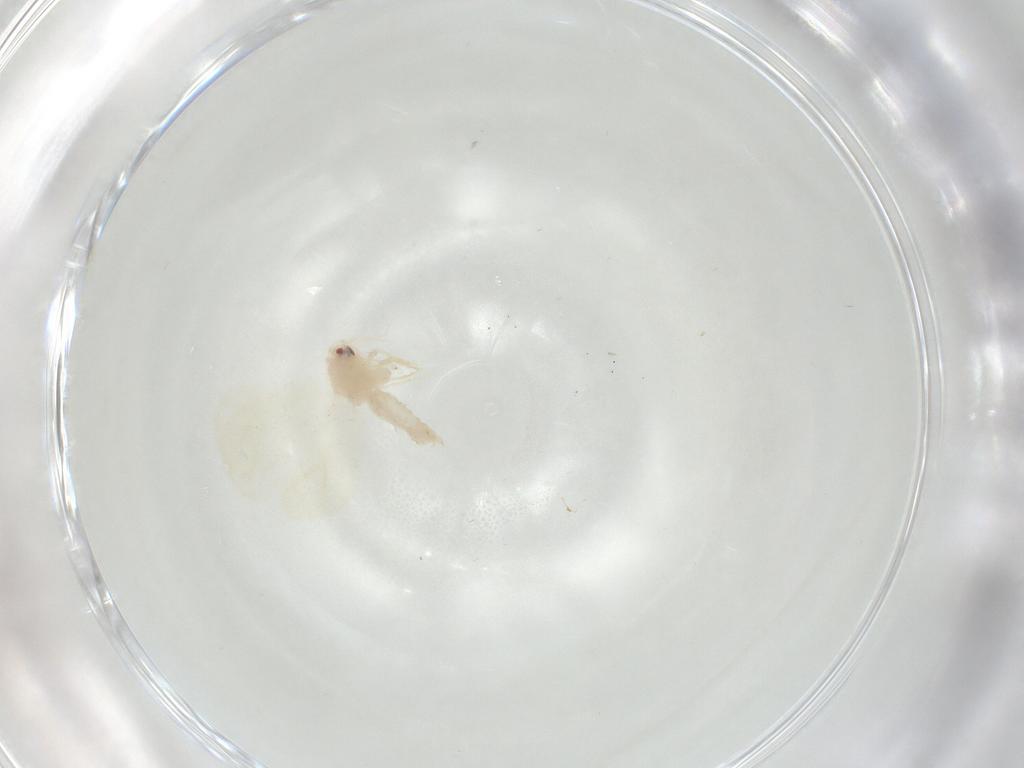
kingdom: Animalia
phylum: Arthropoda
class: Insecta
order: Hemiptera
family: Aleyrodidae
